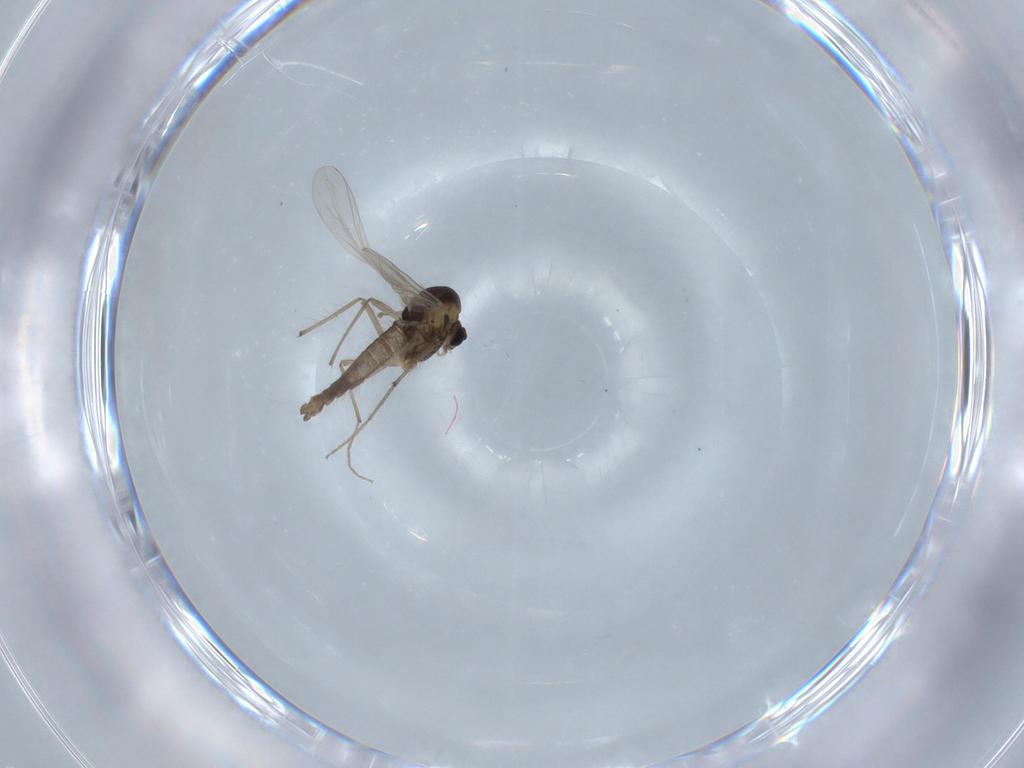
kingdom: Animalia
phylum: Arthropoda
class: Insecta
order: Diptera
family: Chironomidae
